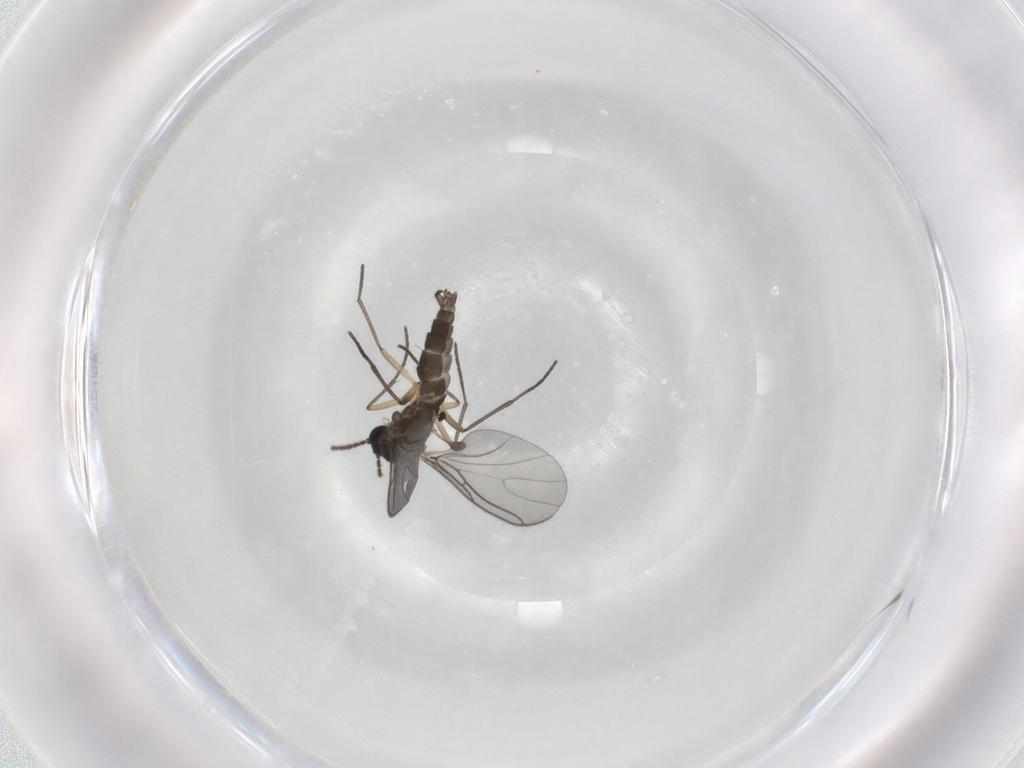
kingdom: Animalia
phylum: Arthropoda
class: Insecta
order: Diptera
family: Sciaridae
